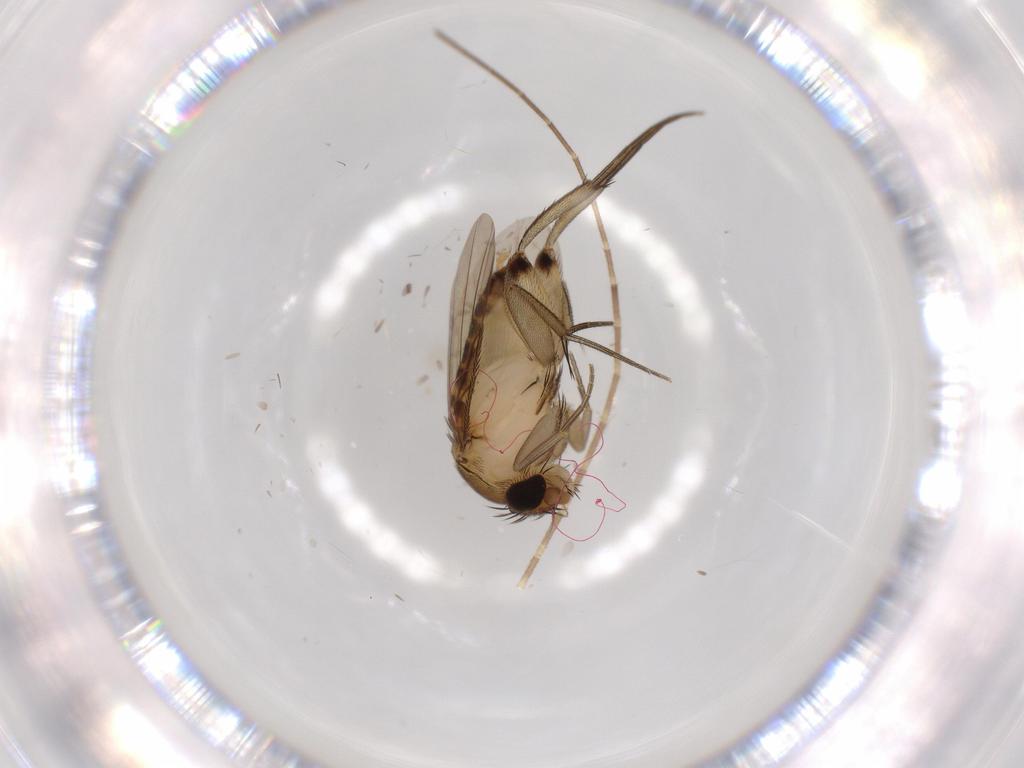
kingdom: Animalia
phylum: Arthropoda
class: Insecta
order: Diptera
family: Phoridae
